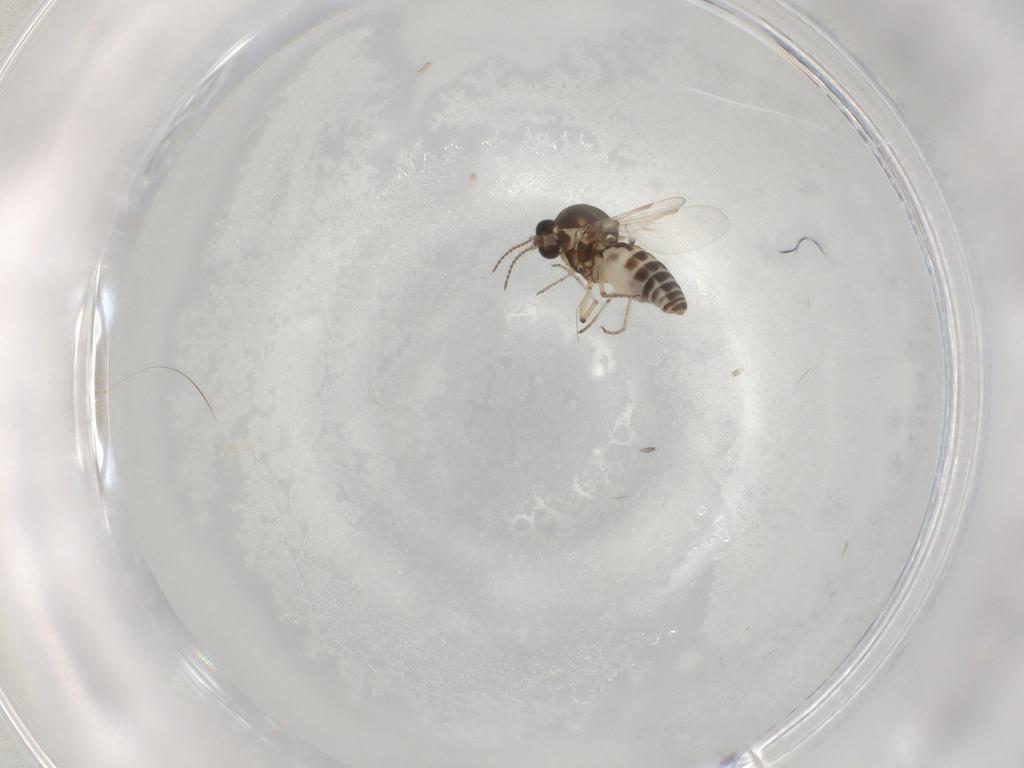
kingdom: Animalia
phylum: Arthropoda
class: Insecta
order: Diptera
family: Ceratopogonidae
